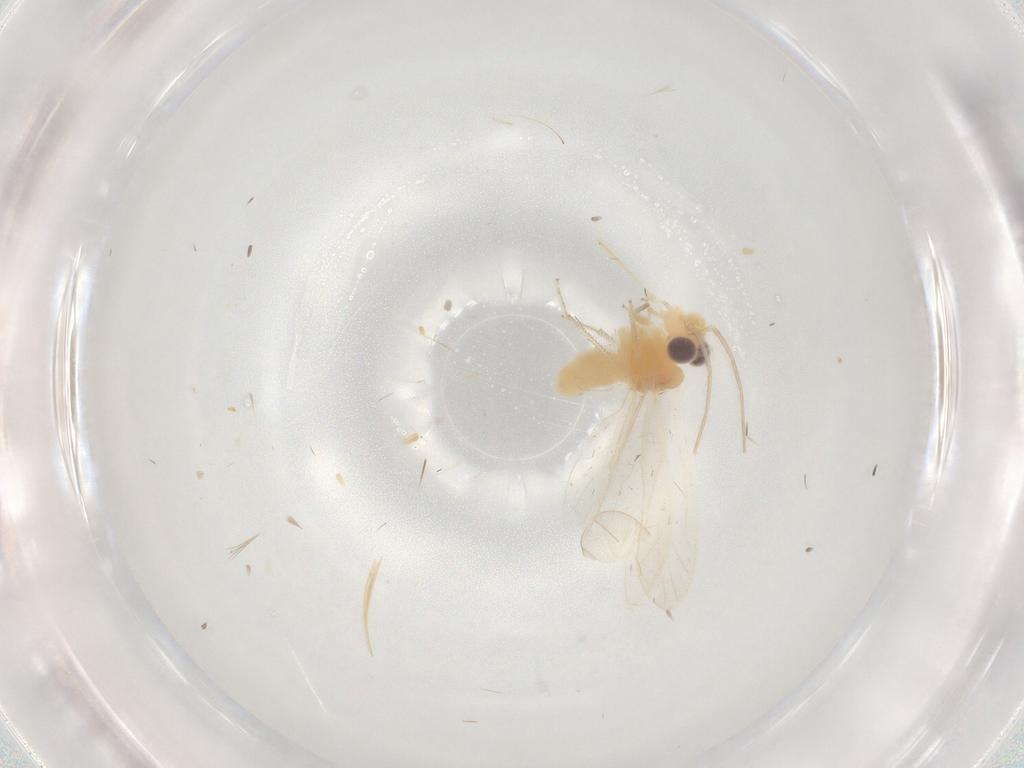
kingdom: Animalia
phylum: Arthropoda
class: Insecta
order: Psocodea
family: Caeciliusidae
